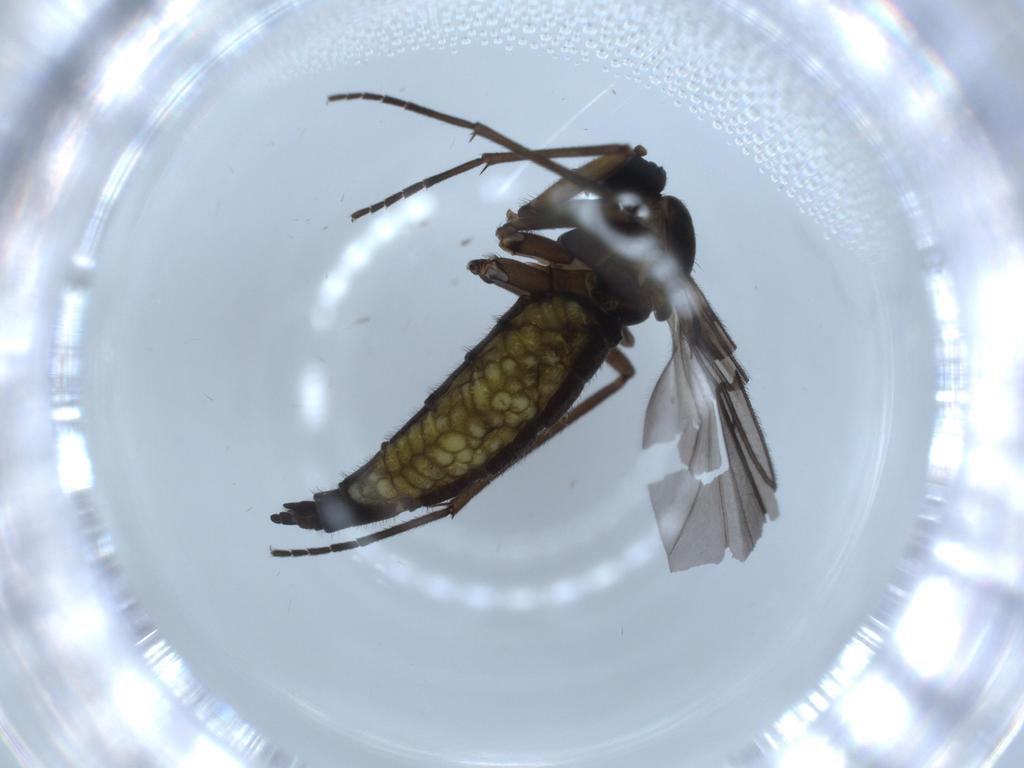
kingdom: Animalia
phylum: Arthropoda
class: Insecta
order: Diptera
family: Sciaridae
